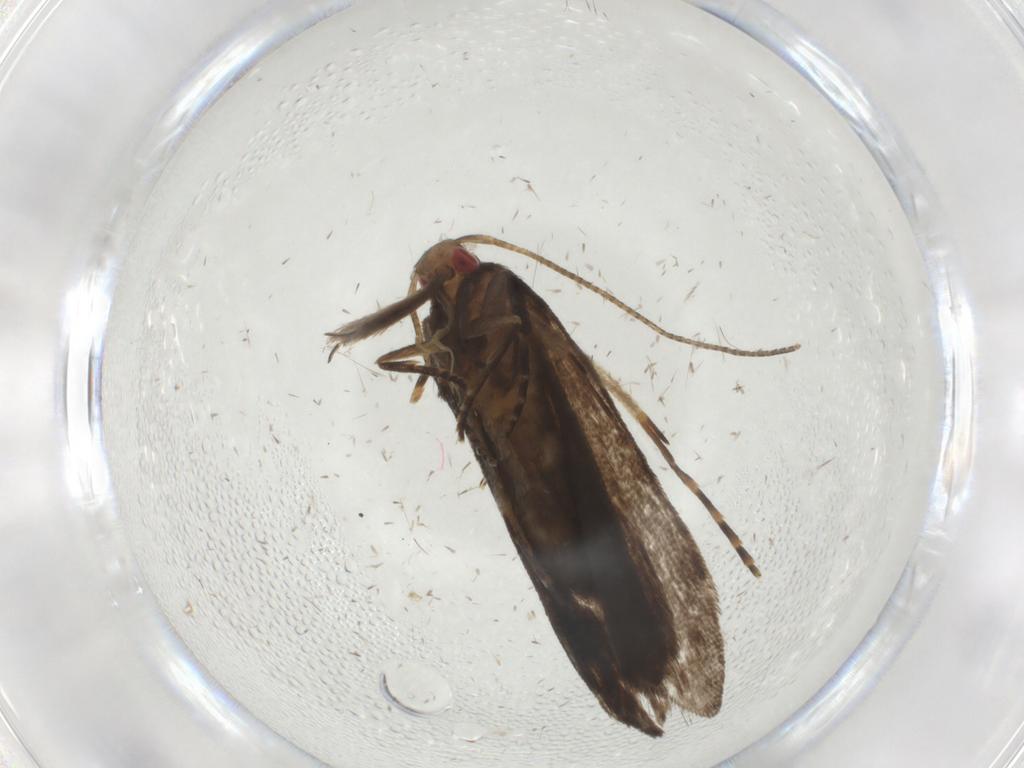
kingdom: Animalia
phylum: Arthropoda
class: Insecta
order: Lepidoptera
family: Gelechiidae
